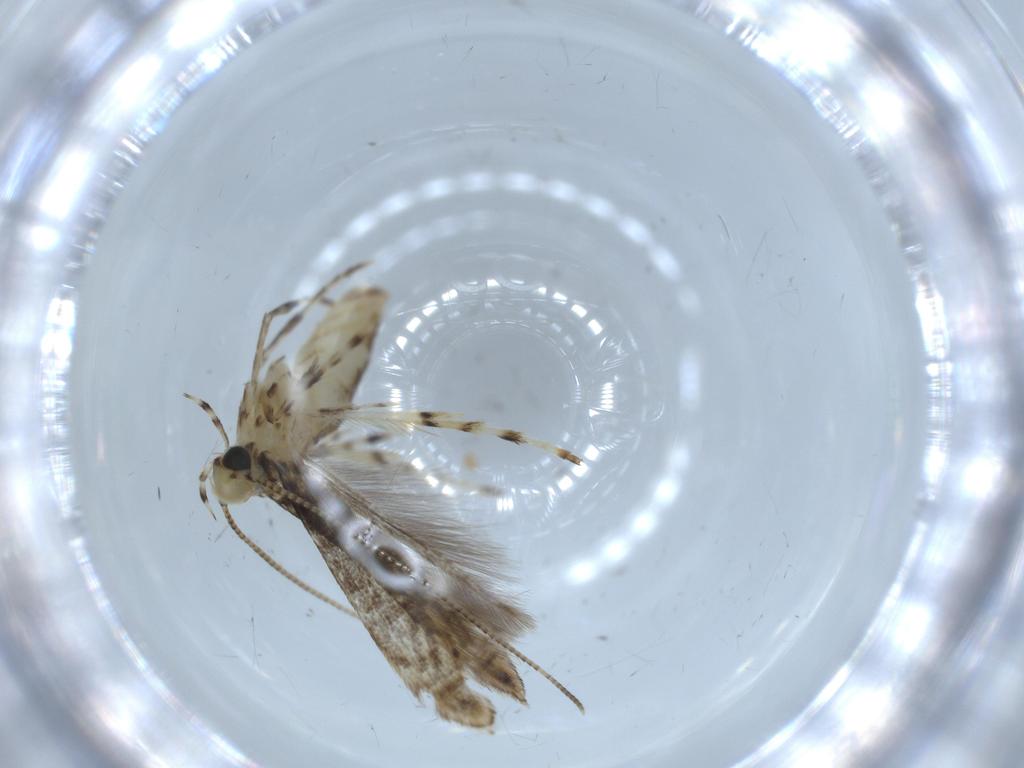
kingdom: Animalia
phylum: Arthropoda
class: Insecta
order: Lepidoptera
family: Gracillariidae
